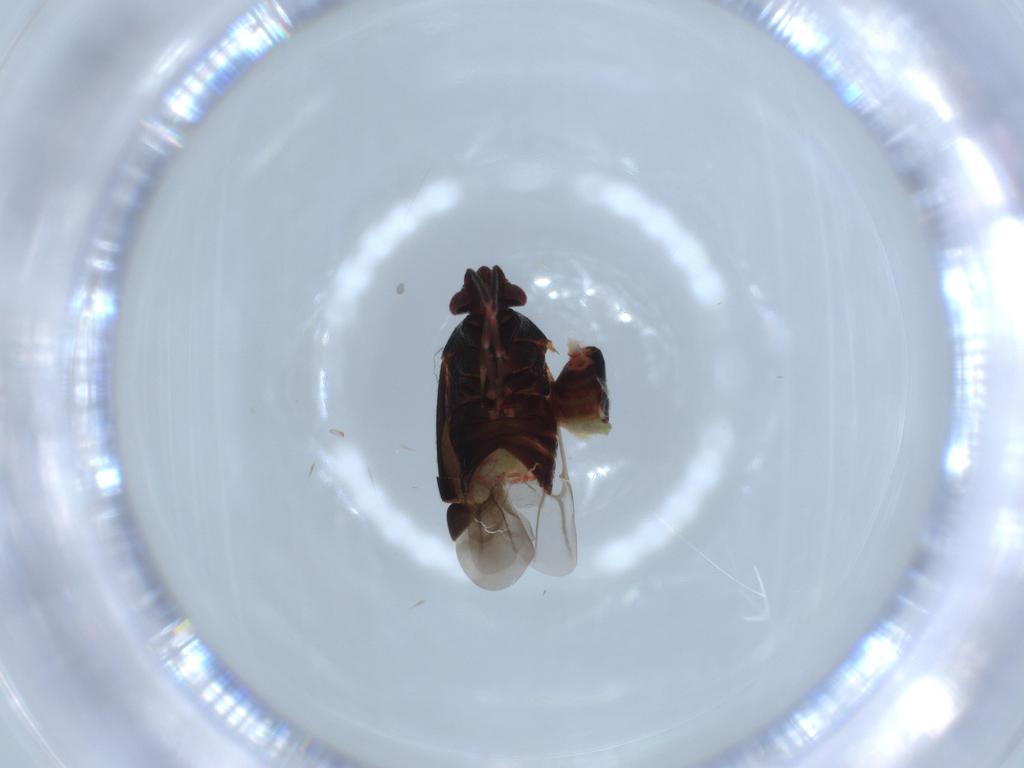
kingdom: Animalia
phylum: Arthropoda
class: Insecta
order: Hemiptera
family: Miridae
